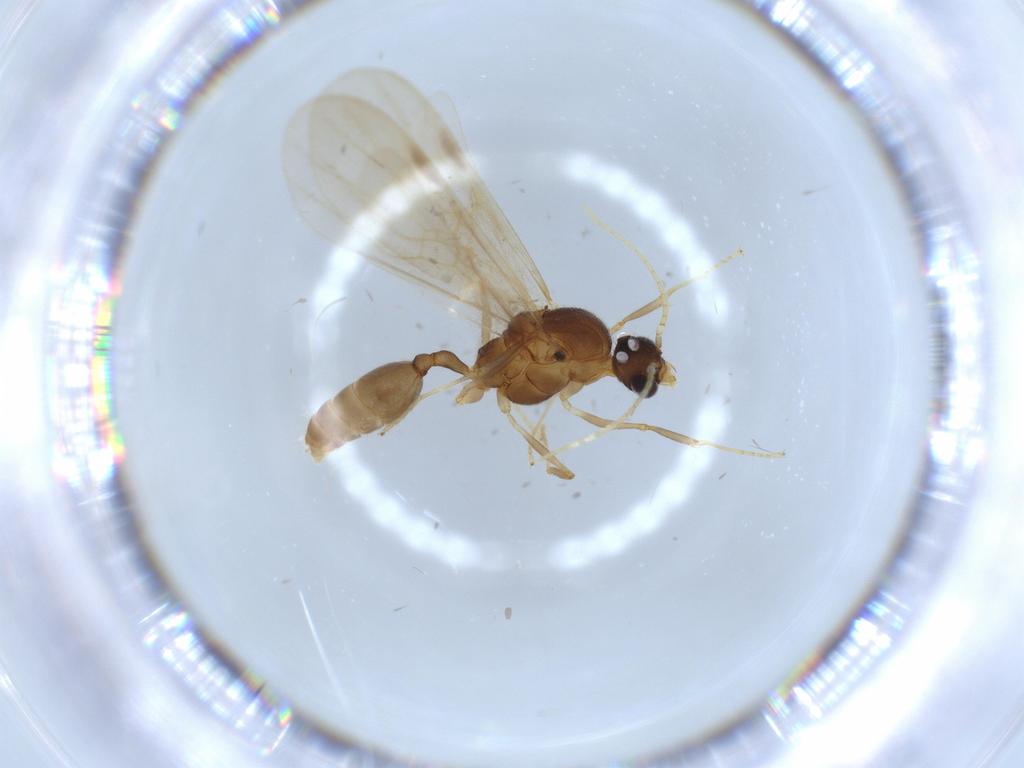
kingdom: Animalia
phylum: Arthropoda
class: Insecta
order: Hymenoptera
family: Formicidae
